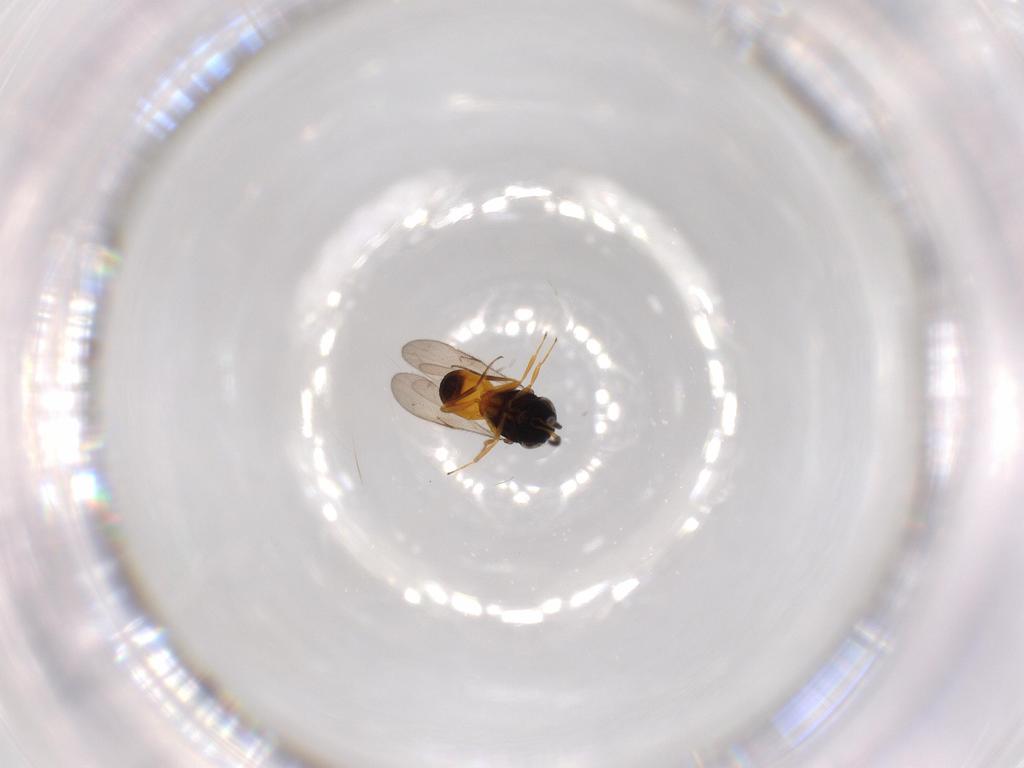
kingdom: Animalia
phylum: Arthropoda
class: Insecta
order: Hymenoptera
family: Scelionidae
